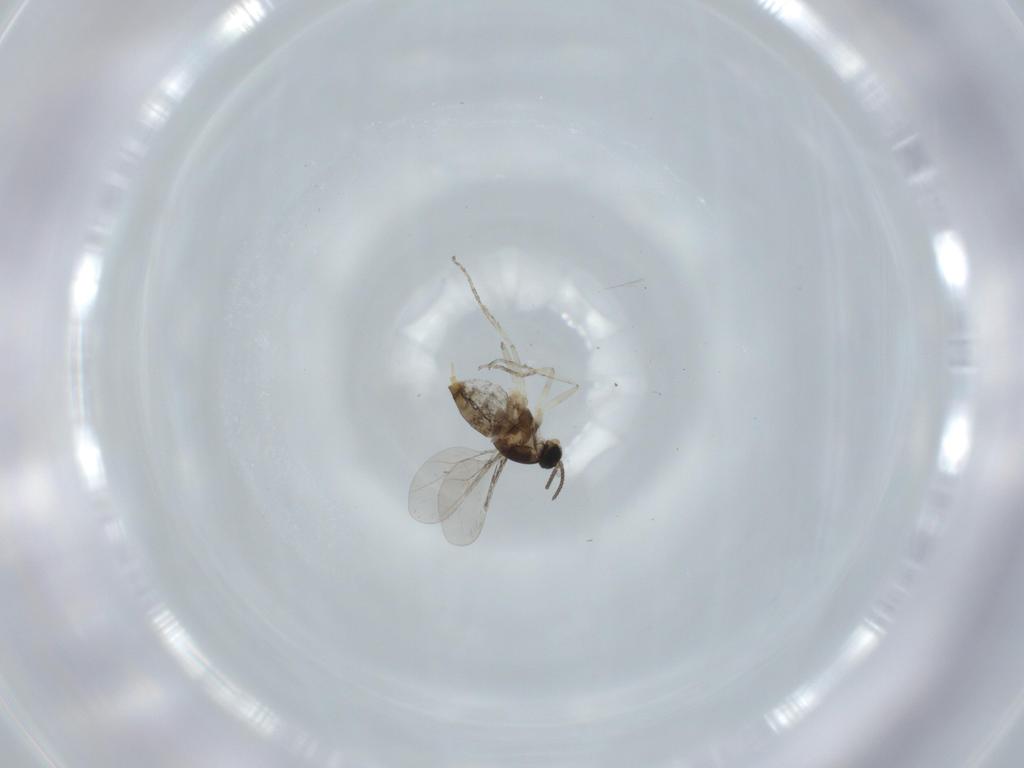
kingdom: Animalia
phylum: Arthropoda
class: Insecta
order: Diptera
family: Cecidomyiidae
